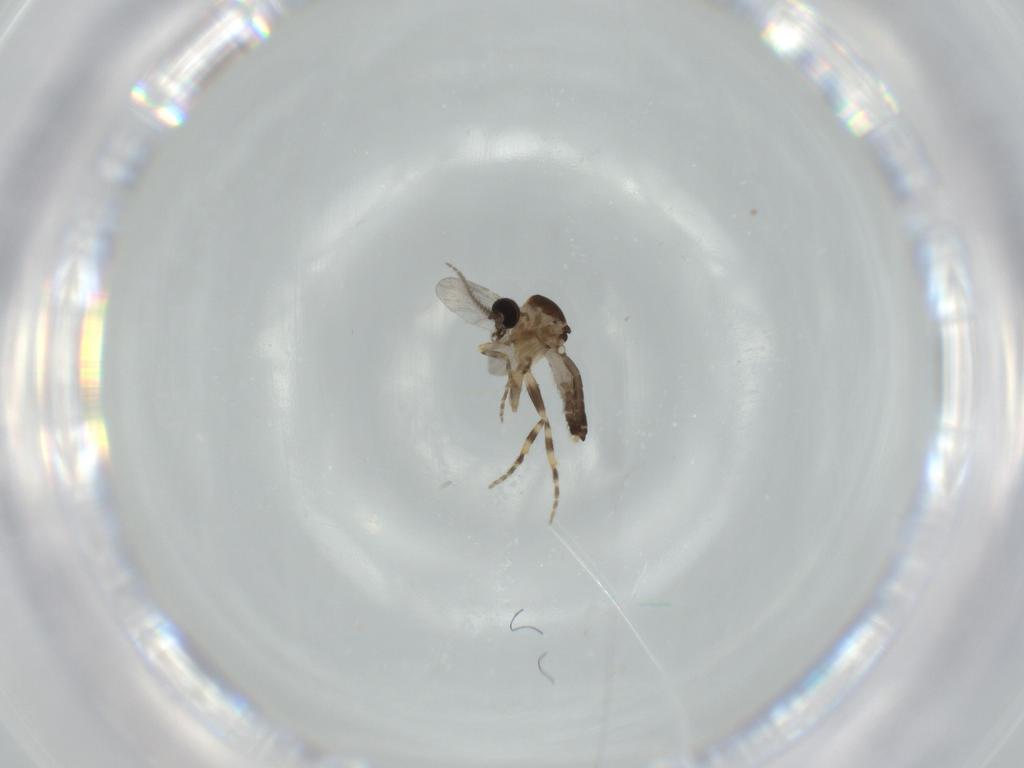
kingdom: Animalia
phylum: Arthropoda
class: Insecta
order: Diptera
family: Ceratopogonidae
